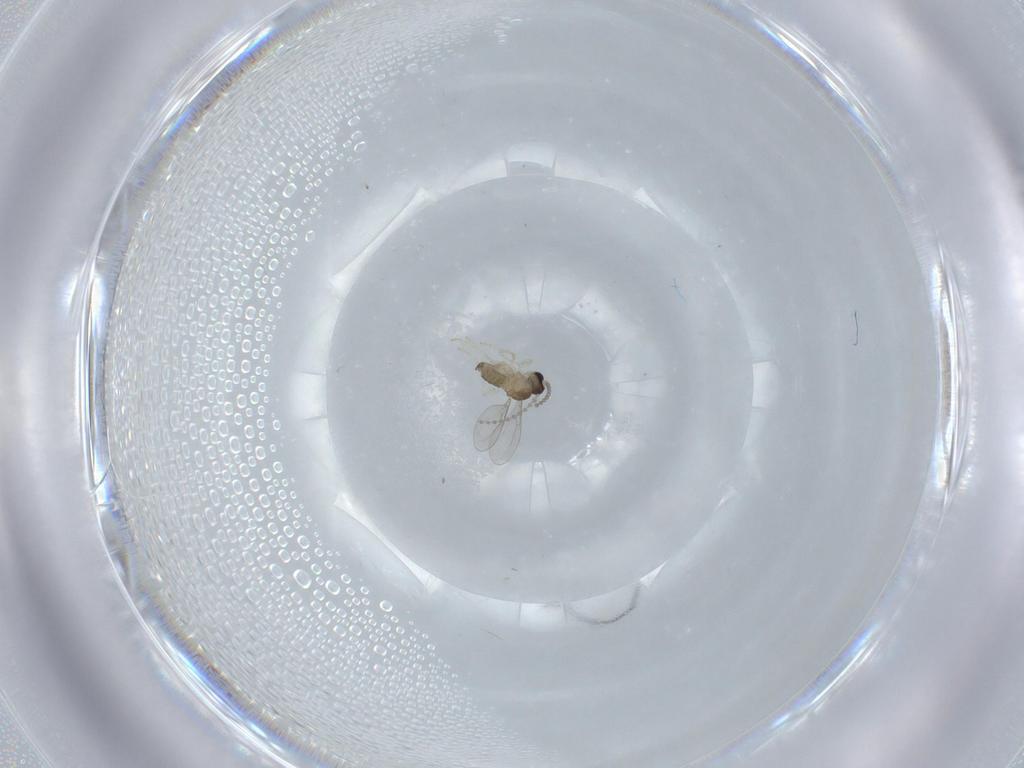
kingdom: Animalia
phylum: Arthropoda
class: Insecta
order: Diptera
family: Cecidomyiidae
